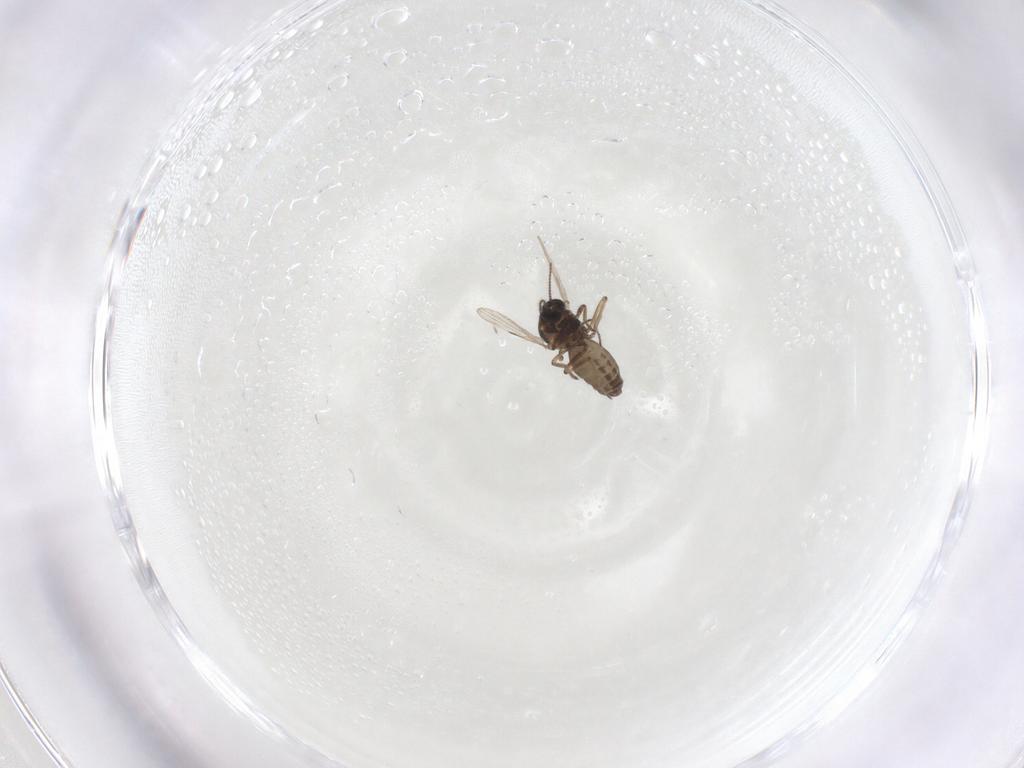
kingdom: Animalia
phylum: Arthropoda
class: Insecta
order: Diptera
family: Ceratopogonidae
